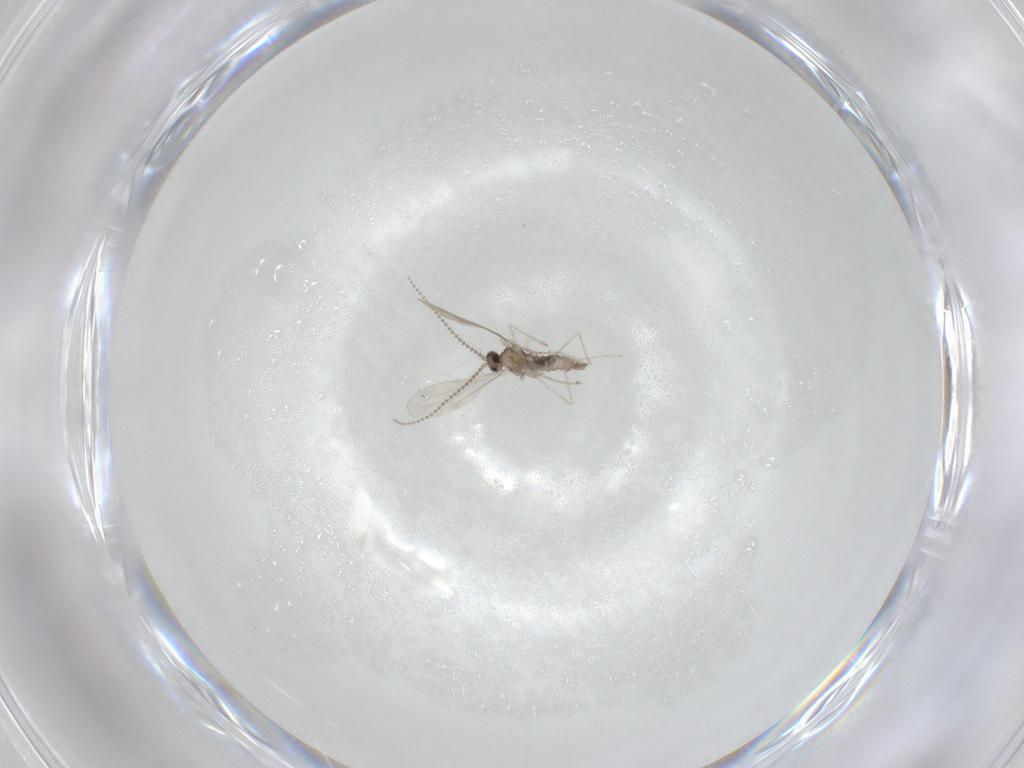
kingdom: Animalia
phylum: Arthropoda
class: Insecta
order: Diptera
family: Cecidomyiidae
